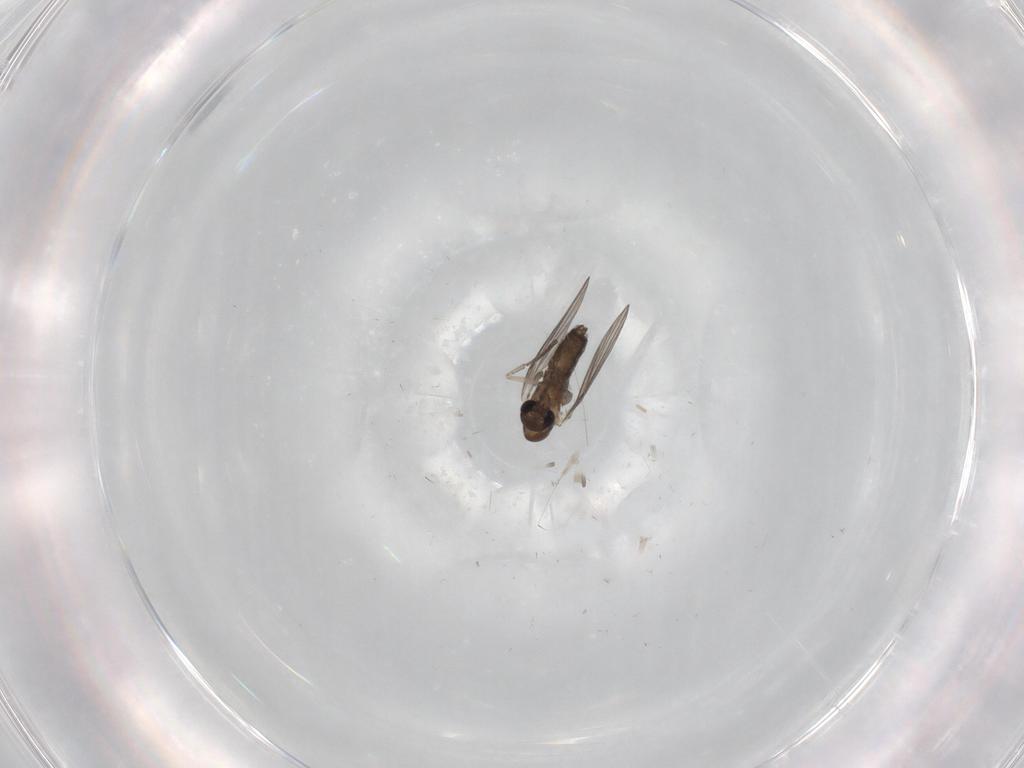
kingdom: Animalia
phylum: Arthropoda
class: Insecta
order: Diptera
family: Psychodidae
